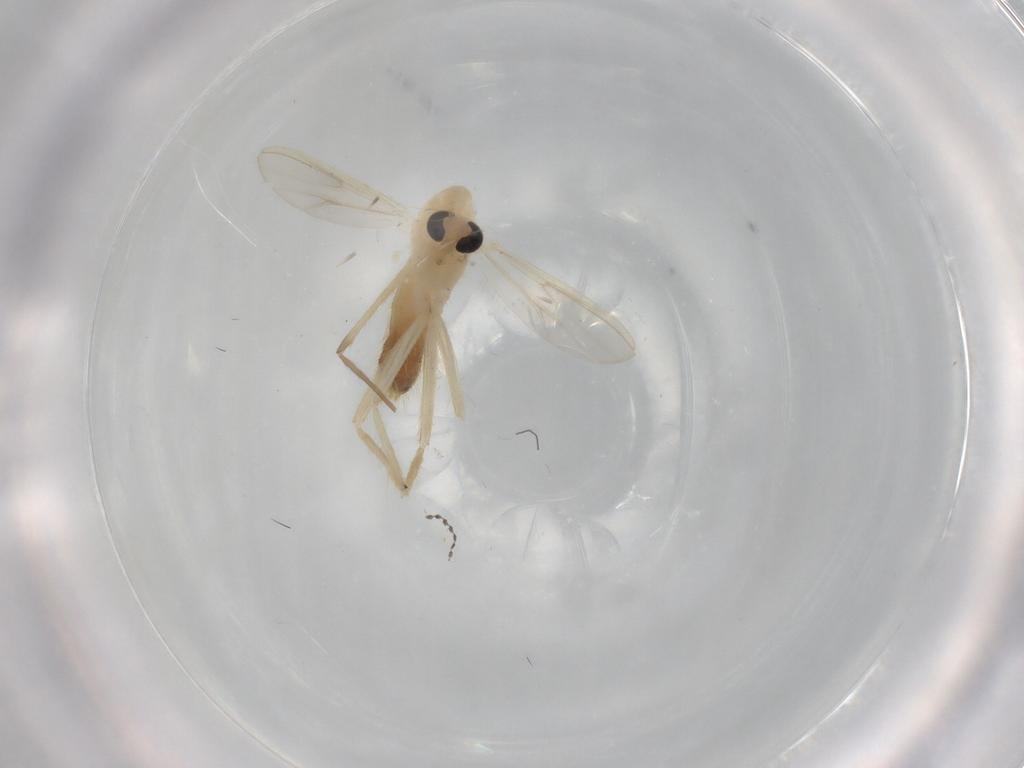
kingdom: Animalia
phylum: Arthropoda
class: Insecta
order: Diptera
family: Chironomidae
